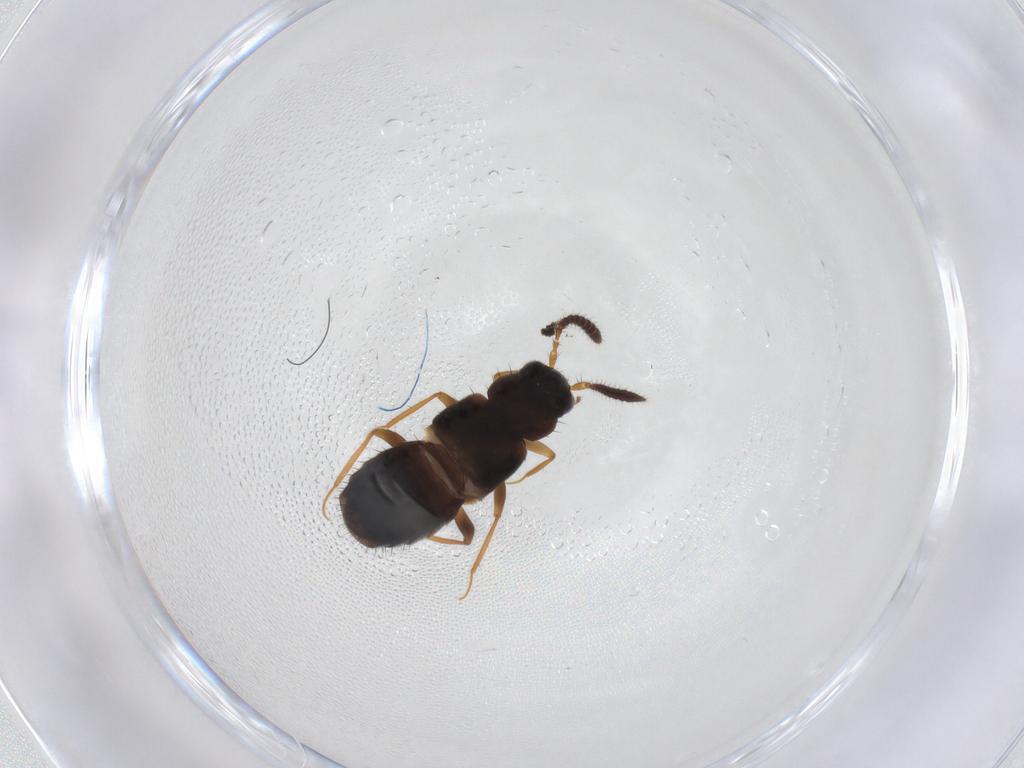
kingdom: Animalia
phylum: Arthropoda
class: Insecta
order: Coleoptera
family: Staphylinidae
